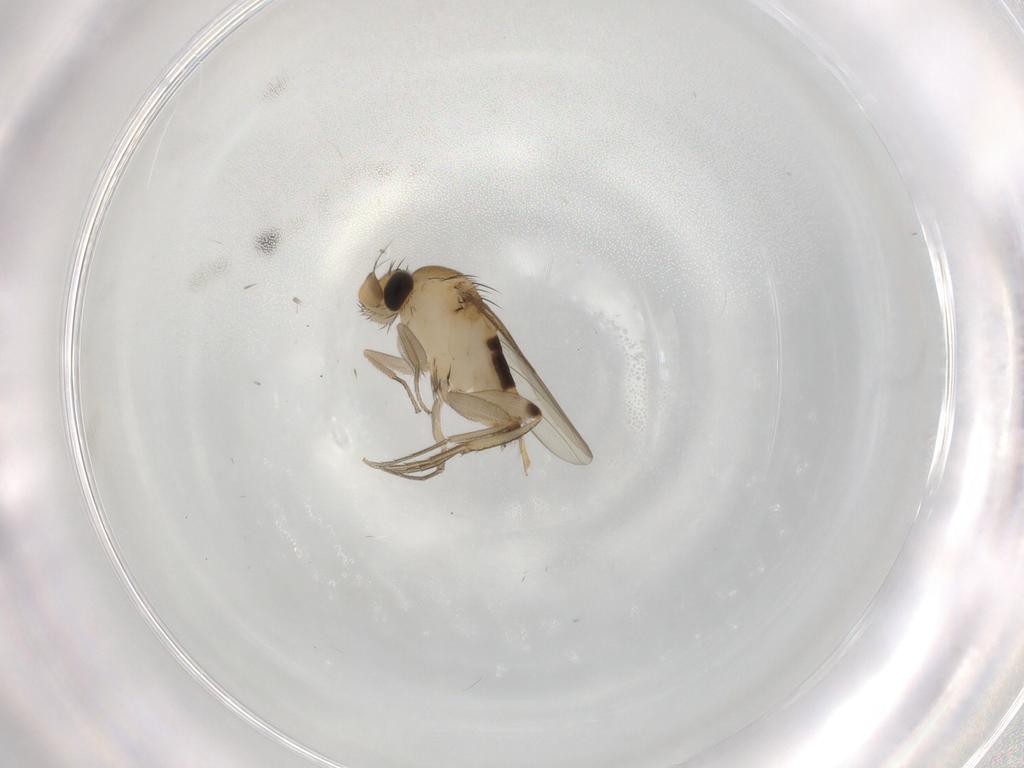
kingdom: Animalia
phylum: Arthropoda
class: Insecta
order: Diptera
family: Phoridae
